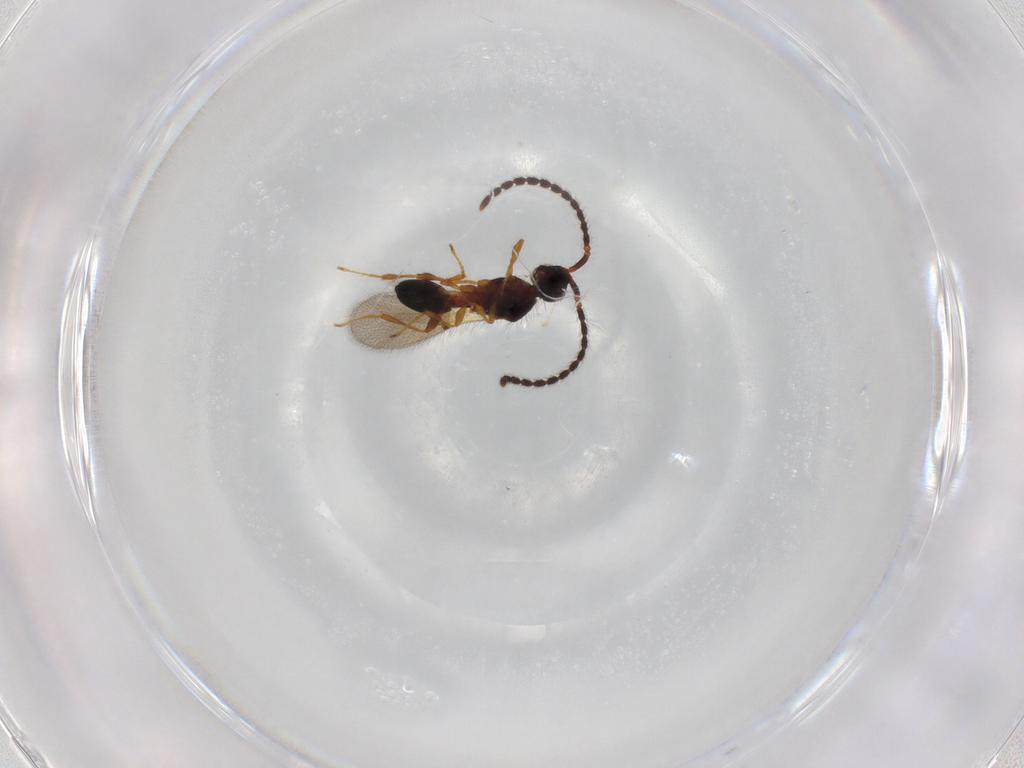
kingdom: Animalia
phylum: Arthropoda
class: Insecta
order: Hymenoptera
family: Diapriidae
